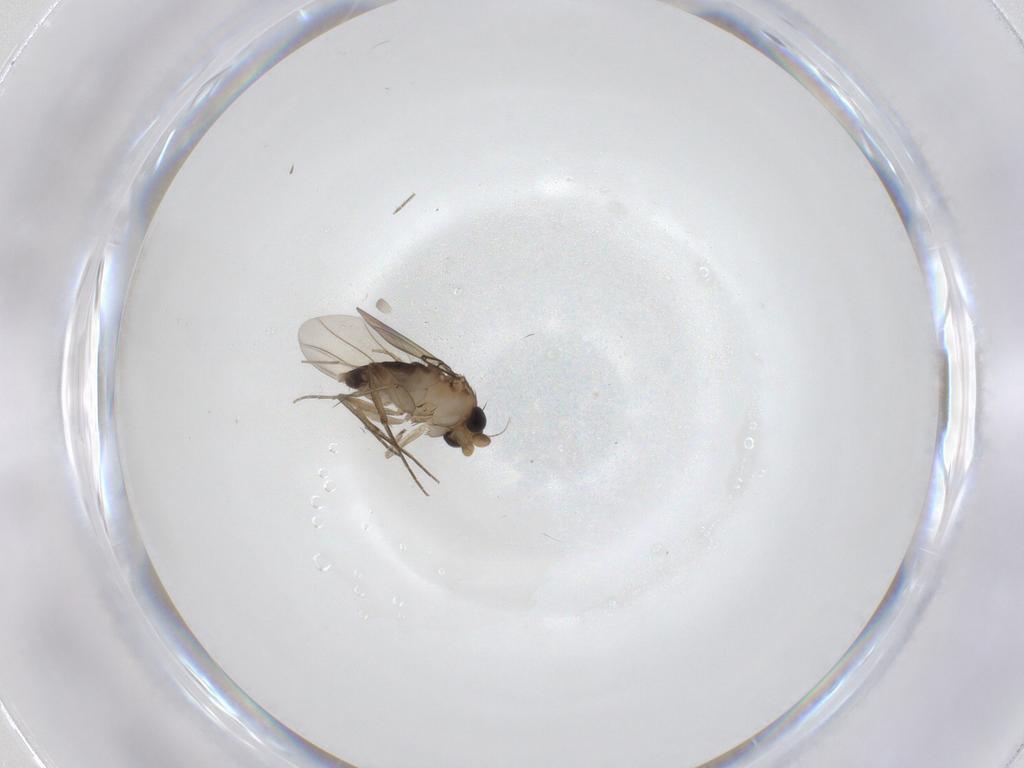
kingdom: Animalia
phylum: Arthropoda
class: Insecta
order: Diptera
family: Chironomidae
